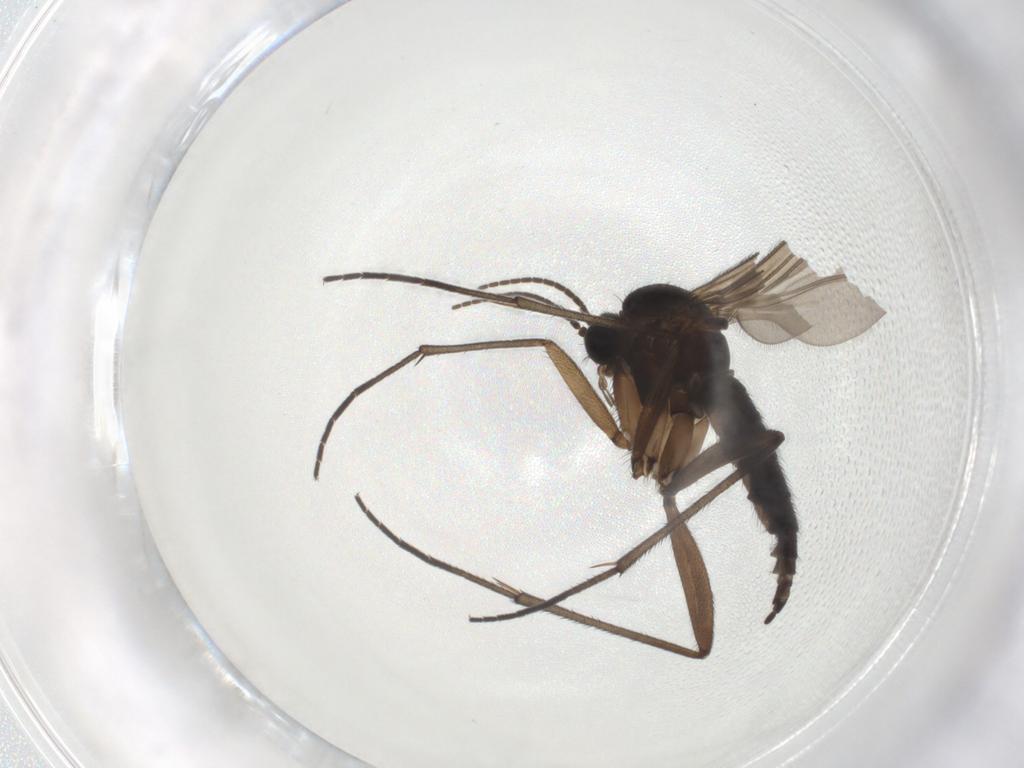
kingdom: Animalia
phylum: Arthropoda
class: Insecta
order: Diptera
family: Sciaridae
